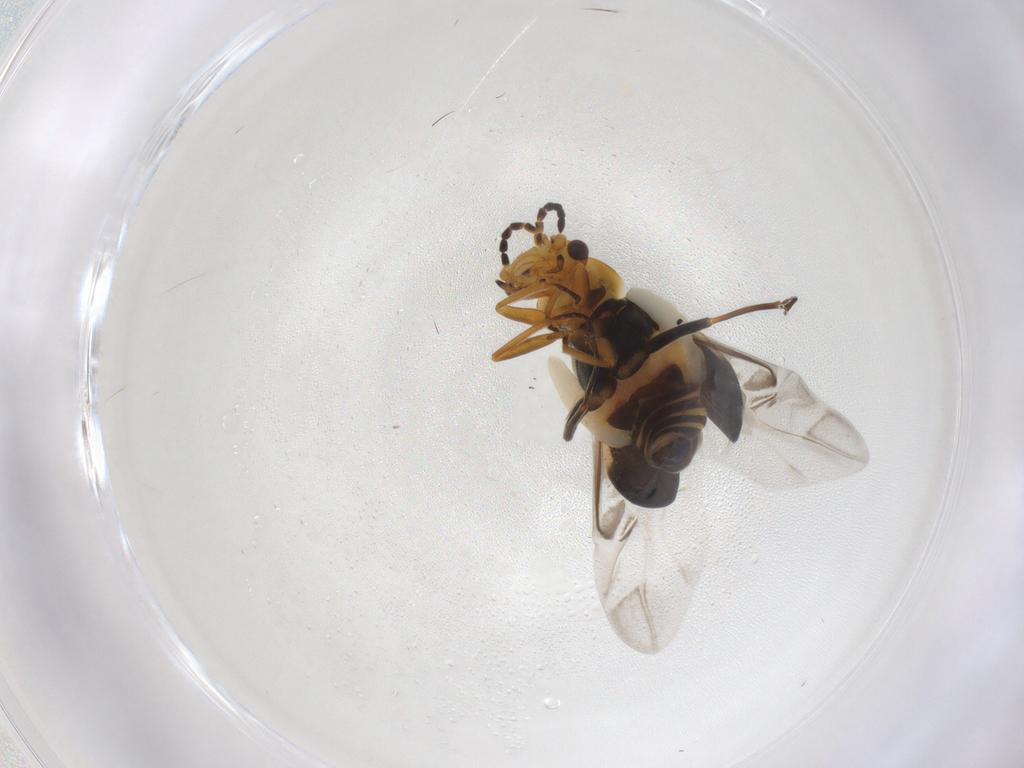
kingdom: Animalia
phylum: Arthropoda
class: Insecta
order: Coleoptera
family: Melyridae
